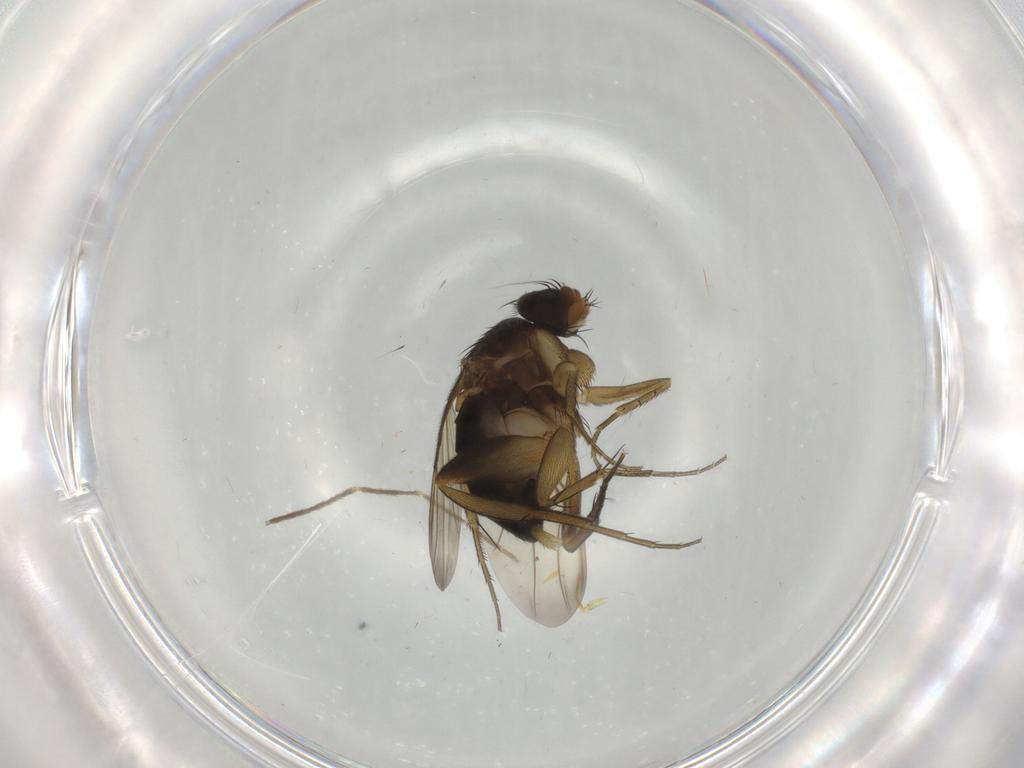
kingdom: Animalia
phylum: Arthropoda
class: Insecta
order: Diptera
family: Phoridae
